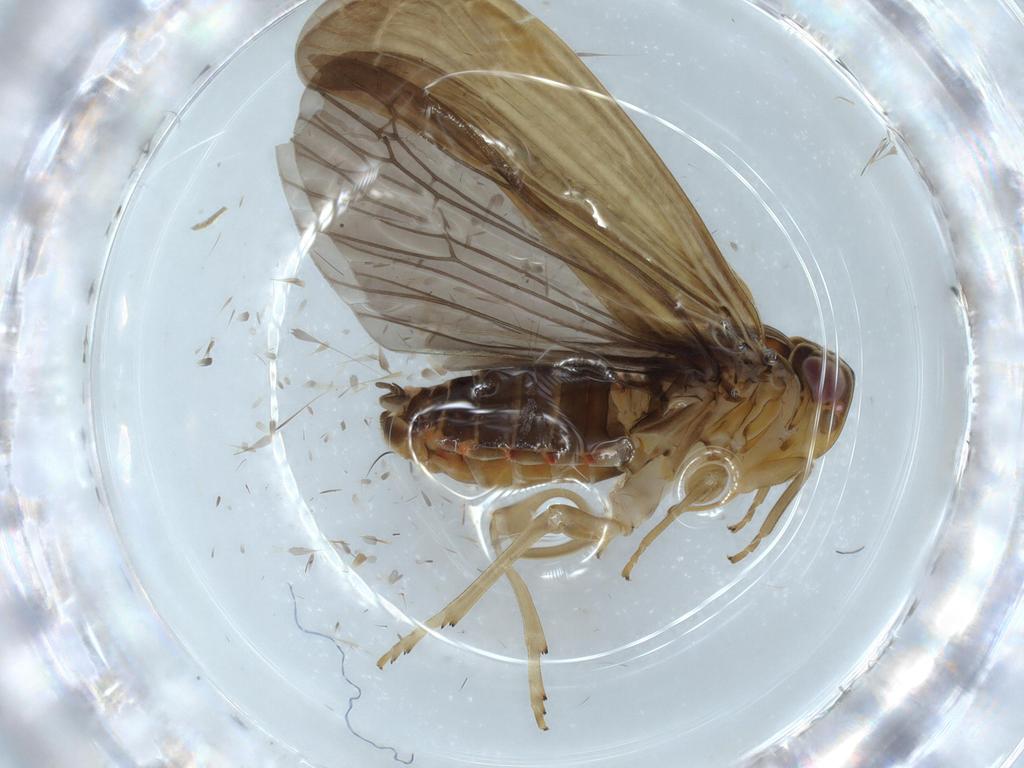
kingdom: Animalia
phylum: Arthropoda
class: Insecta
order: Hemiptera
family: Achilidae
